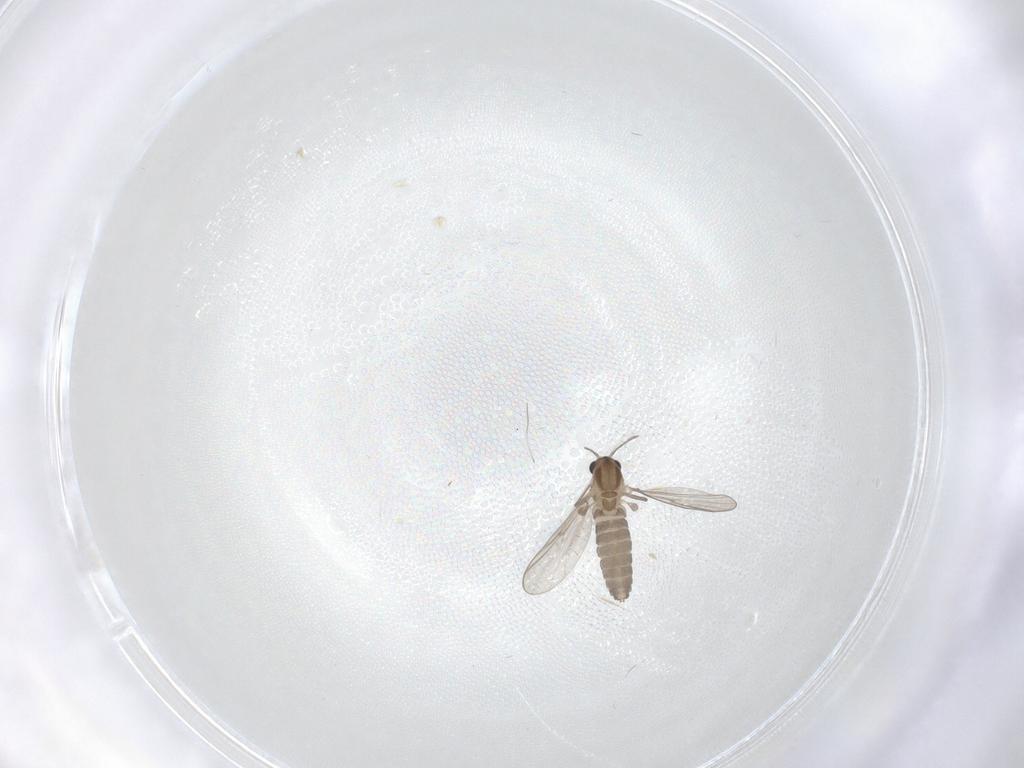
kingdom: Animalia
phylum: Arthropoda
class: Insecta
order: Diptera
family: Chironomidae
